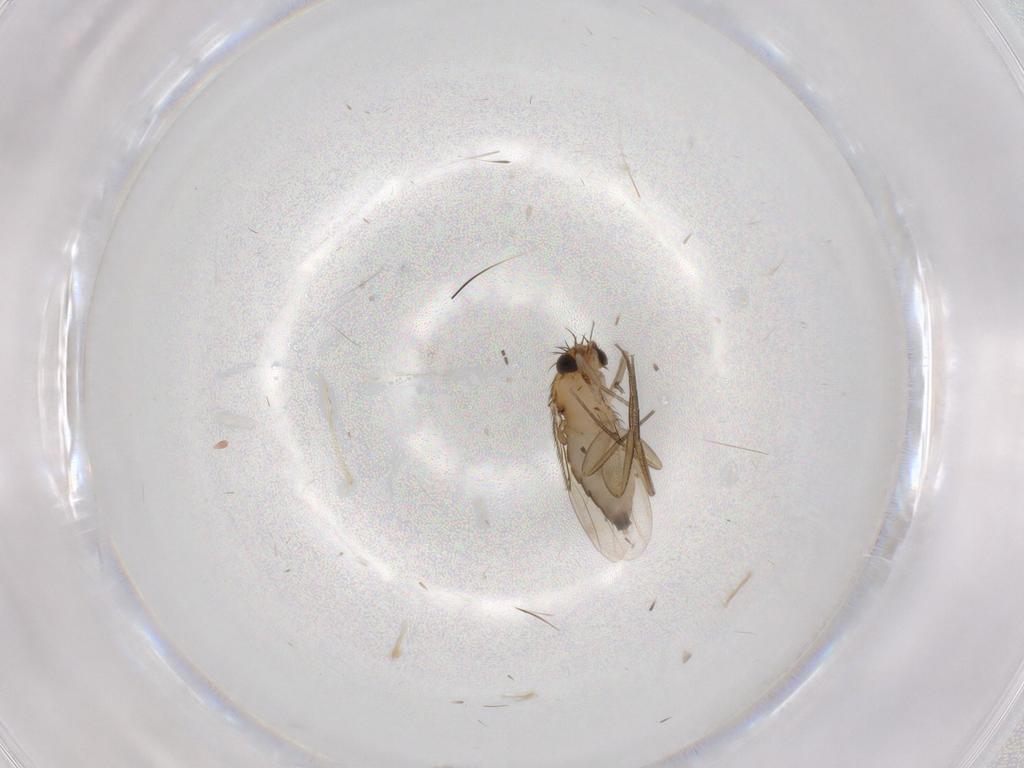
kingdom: Animalia
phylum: Arthropoda
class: Insecta
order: Diptera
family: Phoridae
